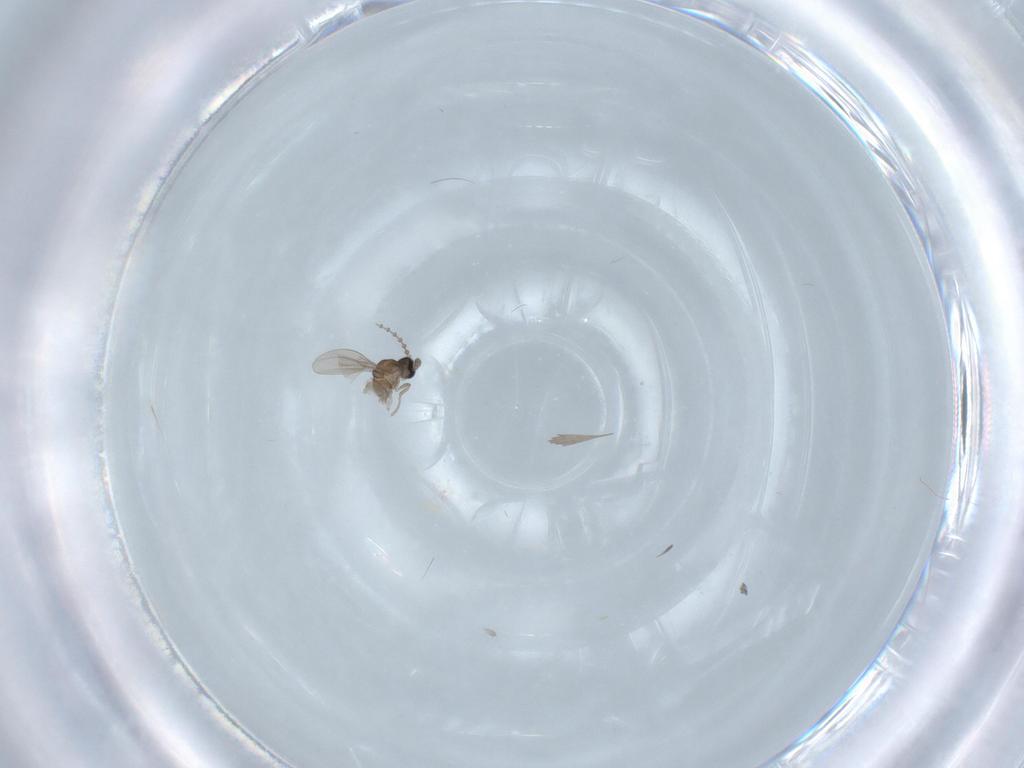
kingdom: Animalia
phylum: Arthropoda
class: Insecta
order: Diptera
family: Cecidomyiidae
